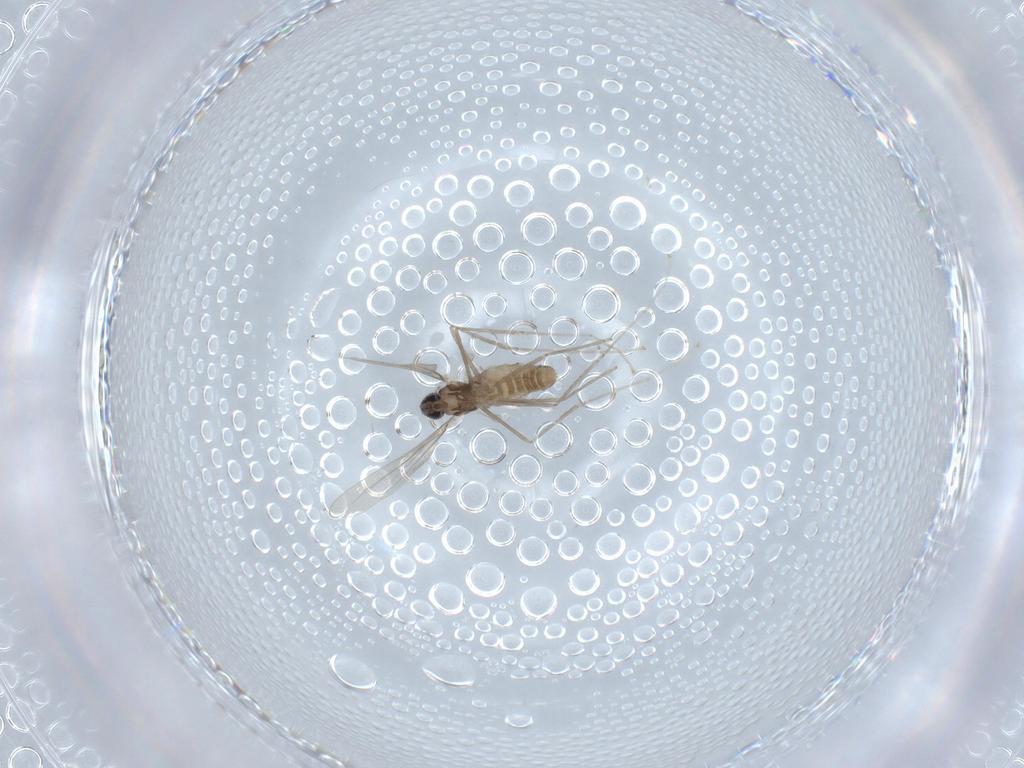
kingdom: Animalia
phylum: Arthropoda
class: Insecta
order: Diptera
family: Cecidomyiidae
